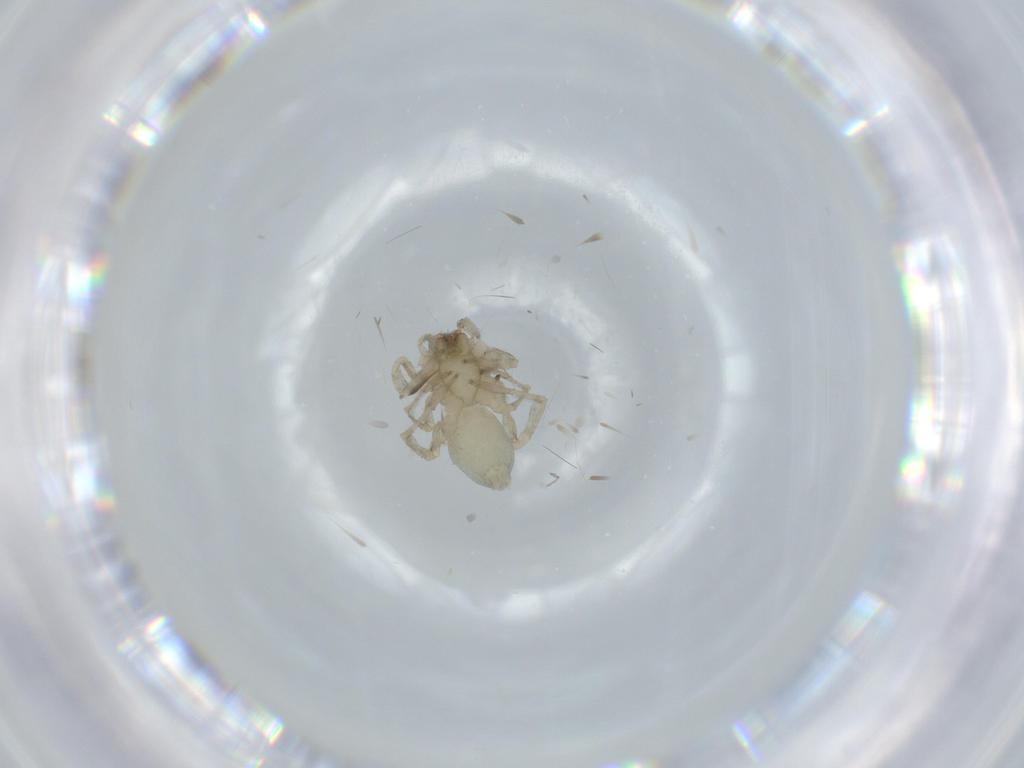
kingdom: Animalia
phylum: Arthropoda
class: Arachnida
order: Araneae
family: Anyphaenidae
